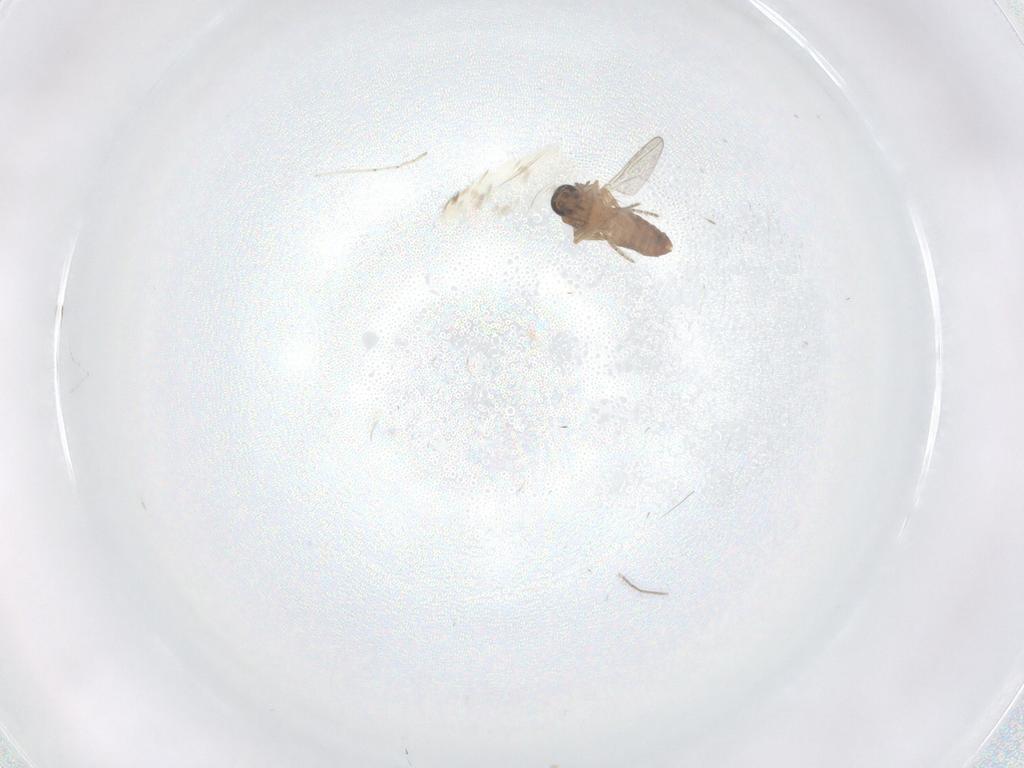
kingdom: Animalia
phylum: Arthropoda
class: Insecta
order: Diptera
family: Ceratopogonidae
